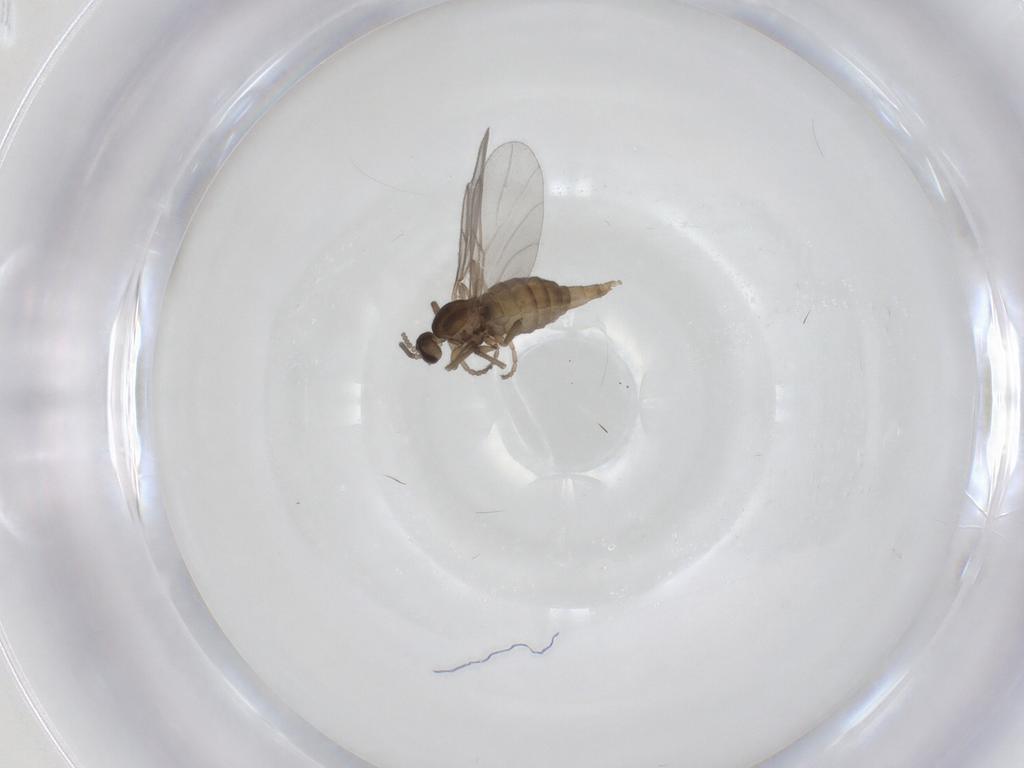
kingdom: Animalia
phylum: Arthropoda
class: Insecta
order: Diptera
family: Cecidomyiidae
